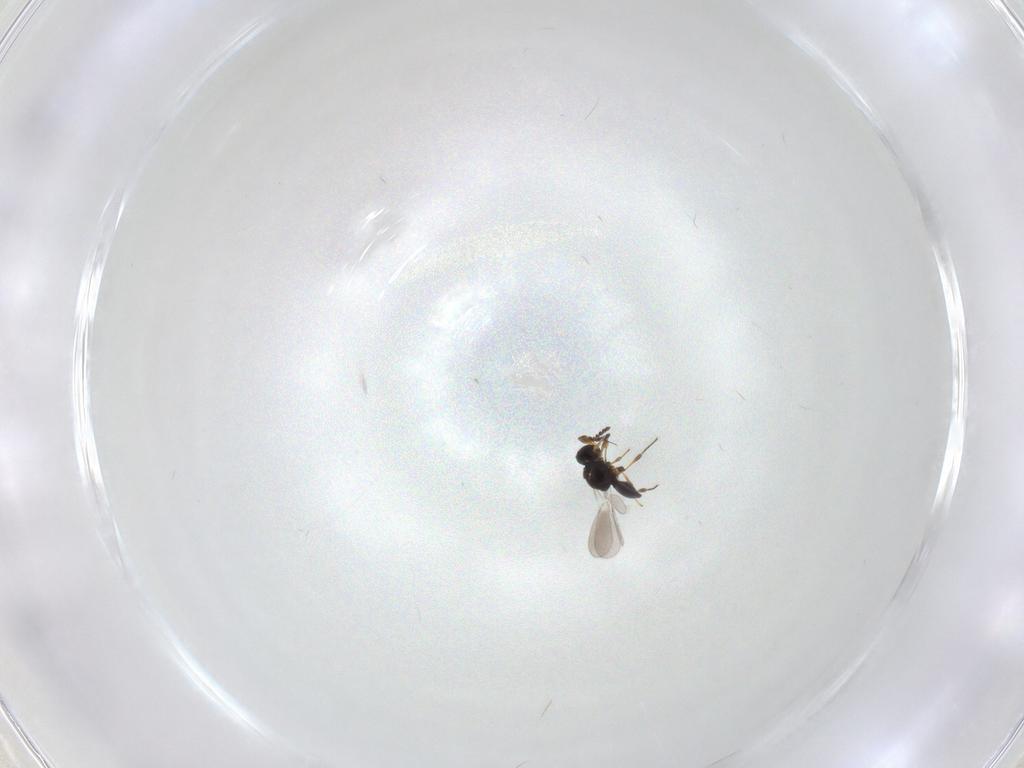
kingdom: Animalia
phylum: Arthropoda
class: Insecta
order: Hymenoptera
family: Platygastridae
